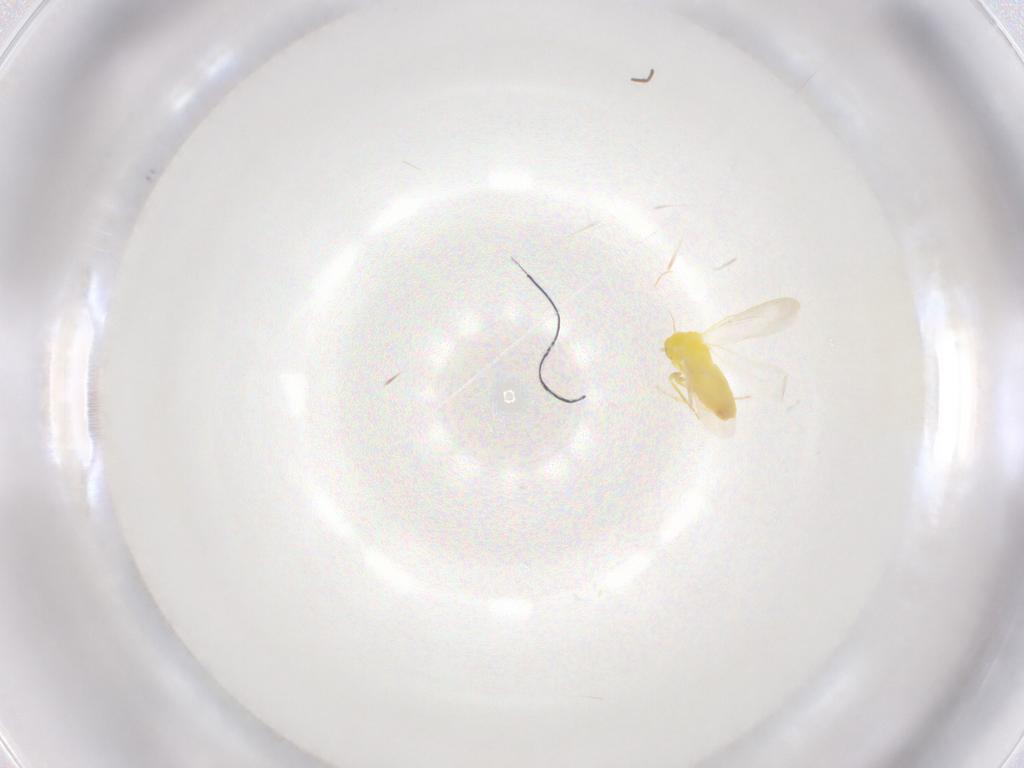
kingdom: Animalia
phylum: Arthropoda
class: Insecta
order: Hemiptera
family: Aleyrodidae
